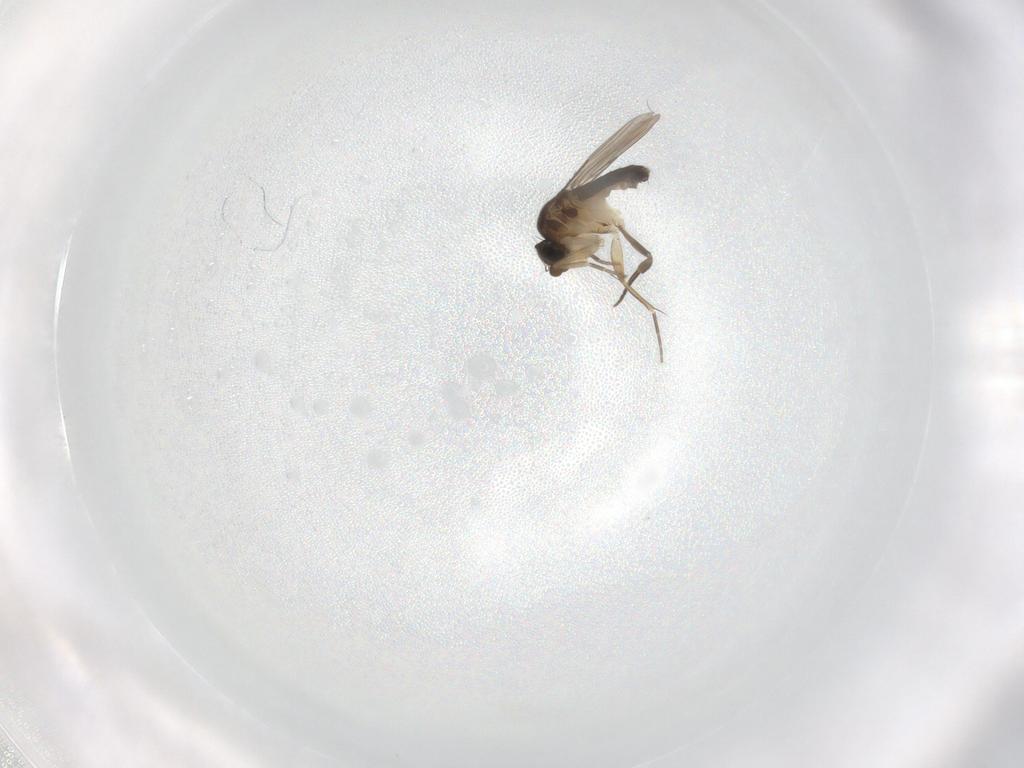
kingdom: Animalia
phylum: Arthropoda
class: Insecta
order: Diptera
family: Phoridae
